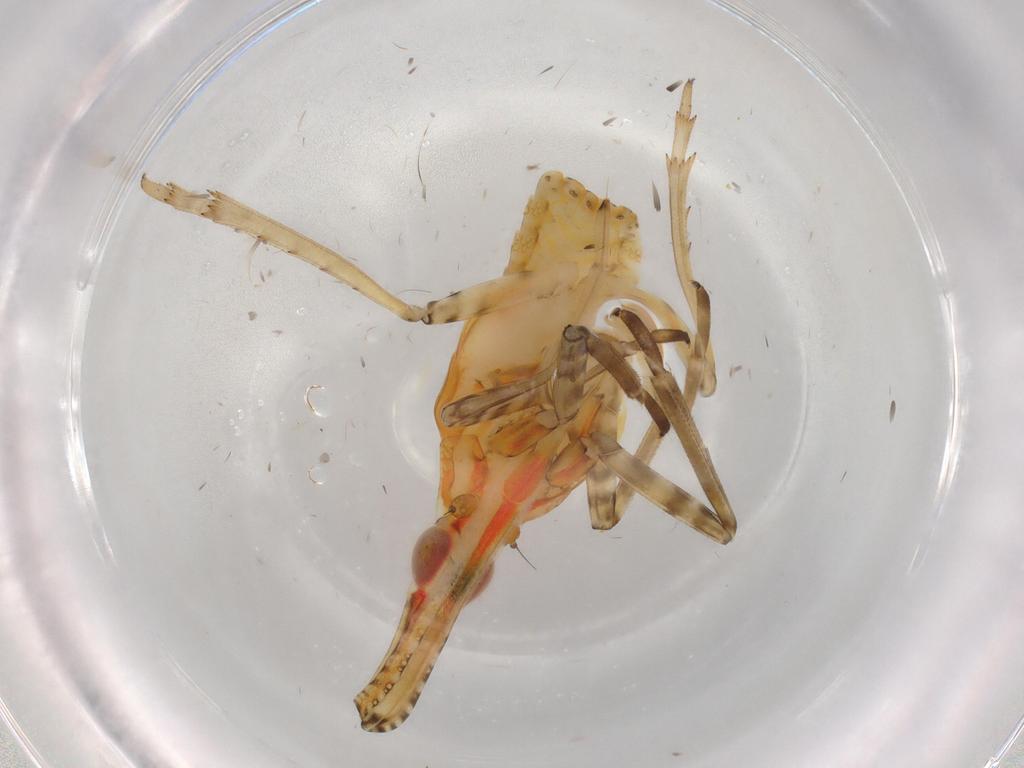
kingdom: Animalia
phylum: Arthropoda
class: Insecta
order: Hemiptera
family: Dictyopharidae
